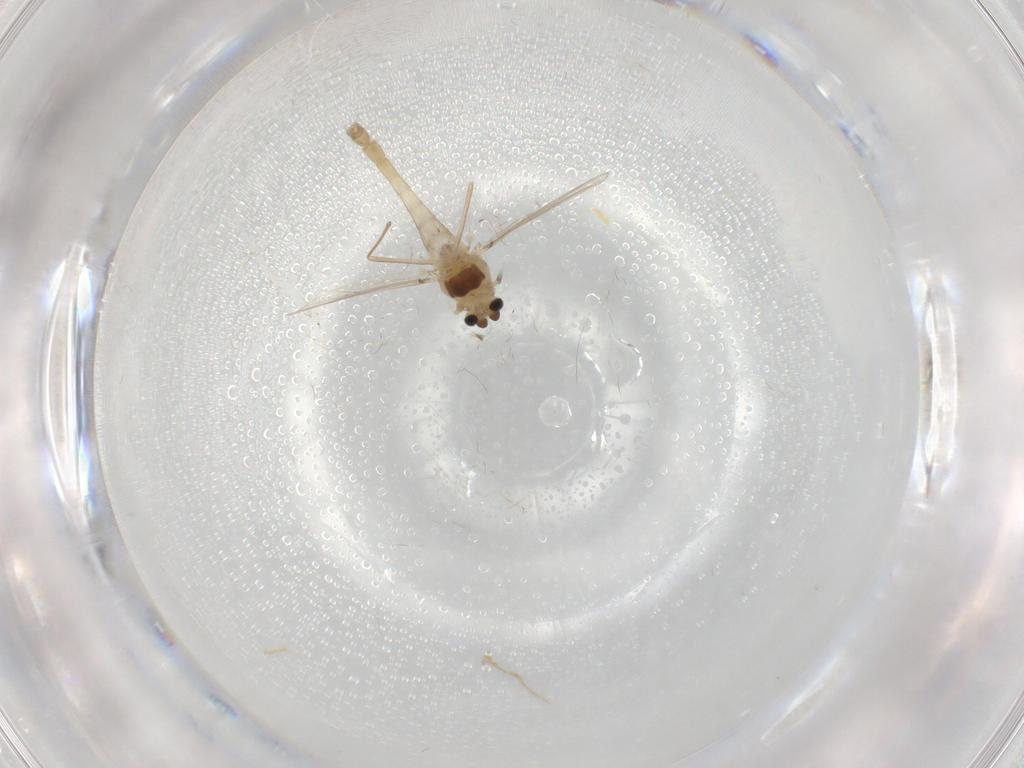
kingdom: Animalia
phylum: Arthropoda
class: Insecta
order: Diptera
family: Chironomidae
